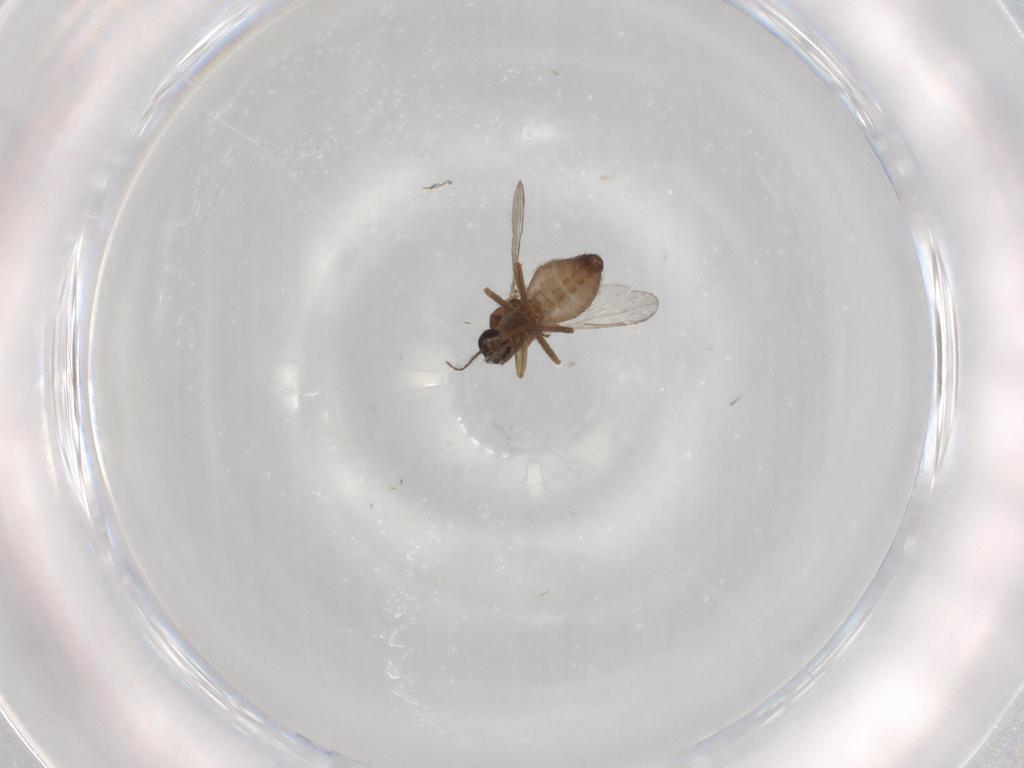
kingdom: Animalia
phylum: Arthropoda
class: Insecta
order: Diptera
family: Ceratopogonidae
